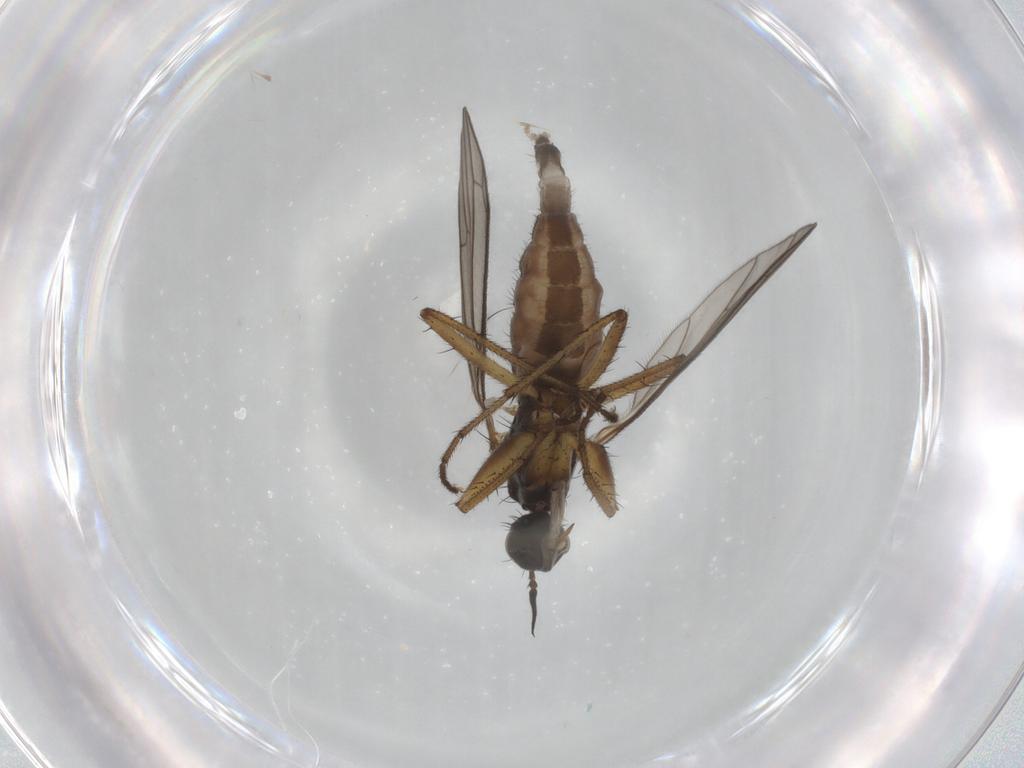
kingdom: Animalia
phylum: Arthropoda
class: Insecta
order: Diptera
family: Empididae
